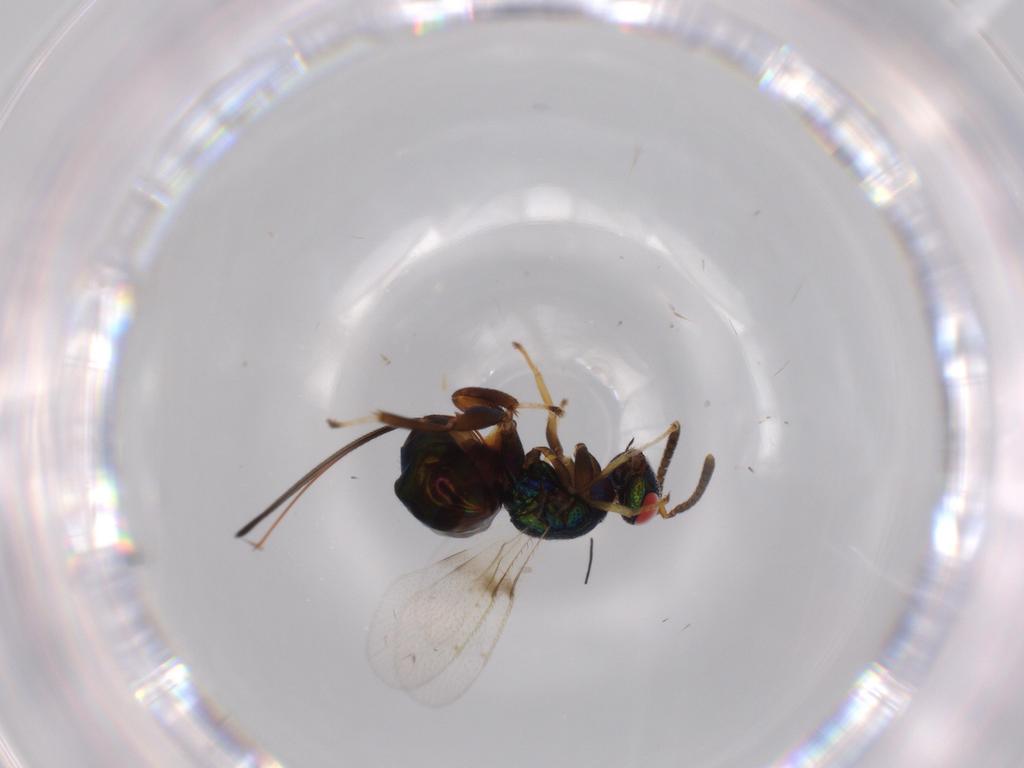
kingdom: Animalia
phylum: Arthropoda
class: Insecta
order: Hymenoptera
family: Torymidae
